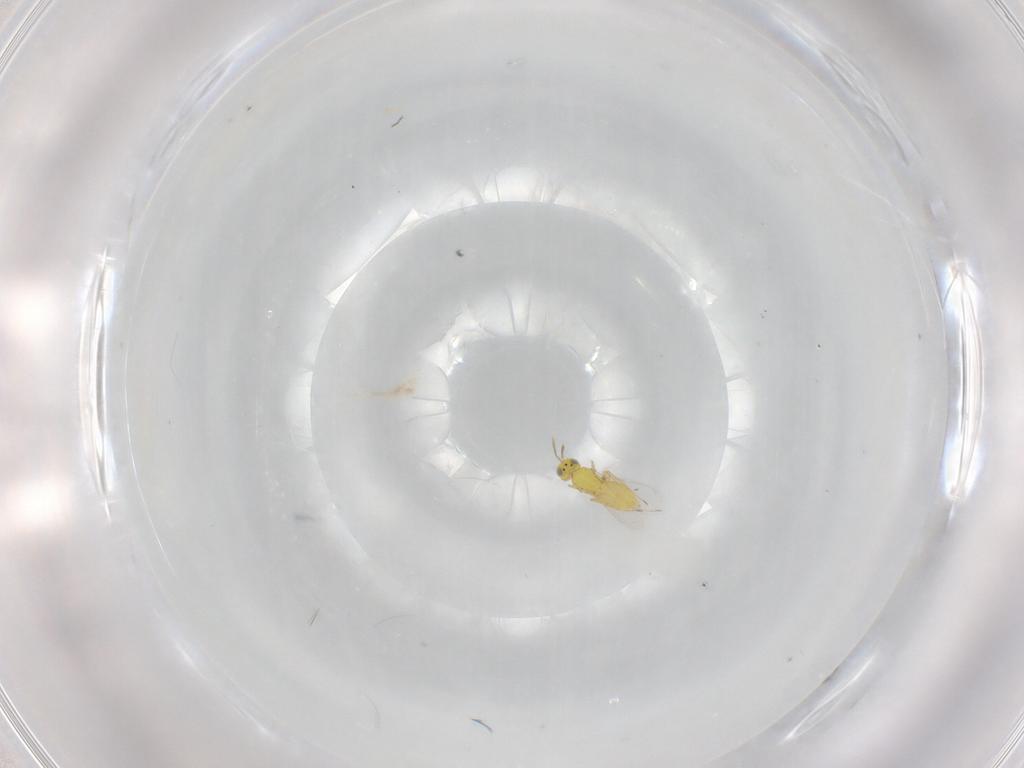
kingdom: Animalia
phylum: Arthropoda
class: Insecta
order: Hymenoptera
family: Aphelinidae
